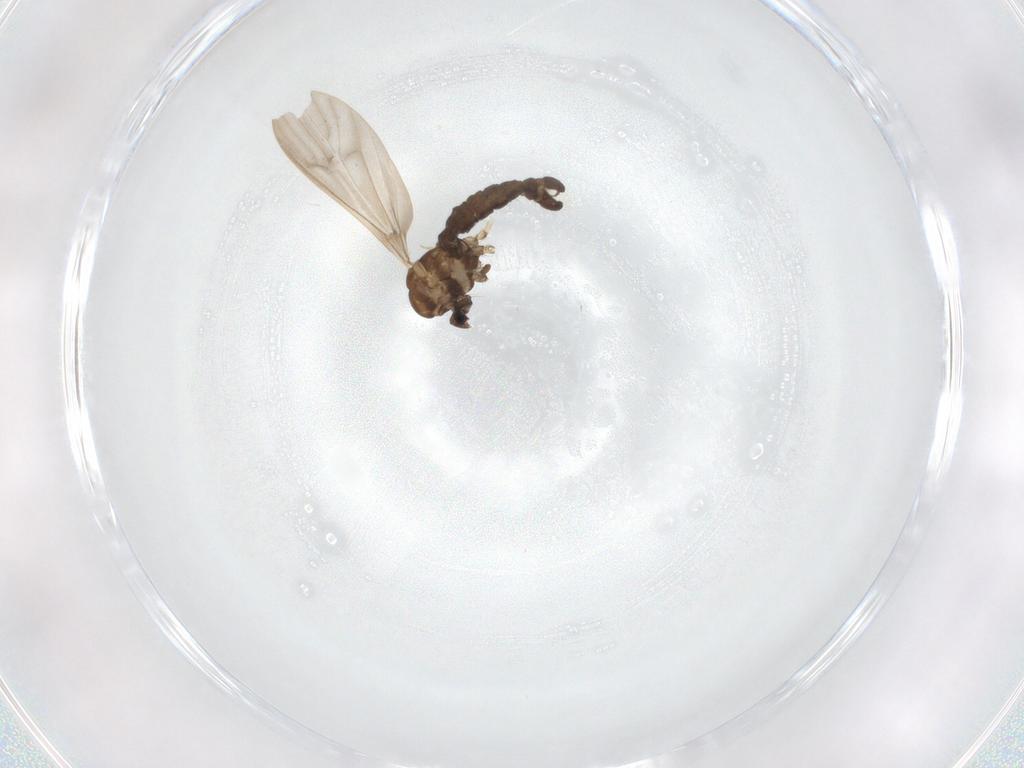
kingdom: Animalia
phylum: Arthropoda
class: Insecta
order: Diptera
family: Limoniidae
